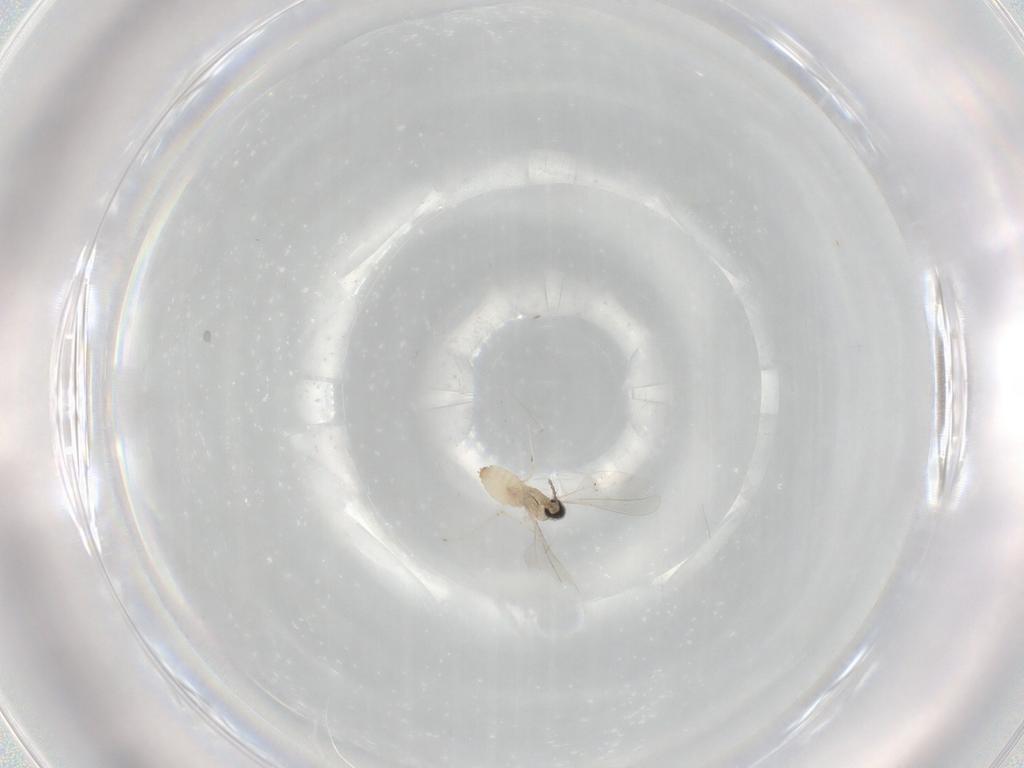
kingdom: Animalia
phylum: Arthropoda
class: Insecta
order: Diptera
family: Cecidomyiidae
